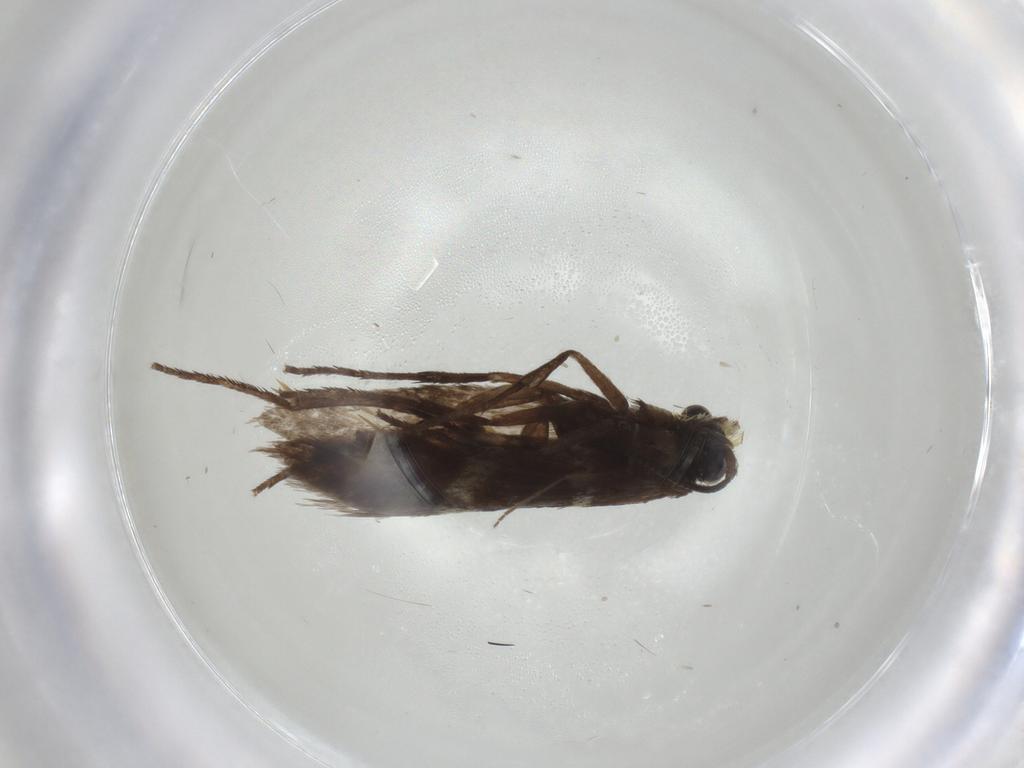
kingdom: Animalia
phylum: Arthropoda
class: Insecta
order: Lepidoptera
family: Micropterigidae
